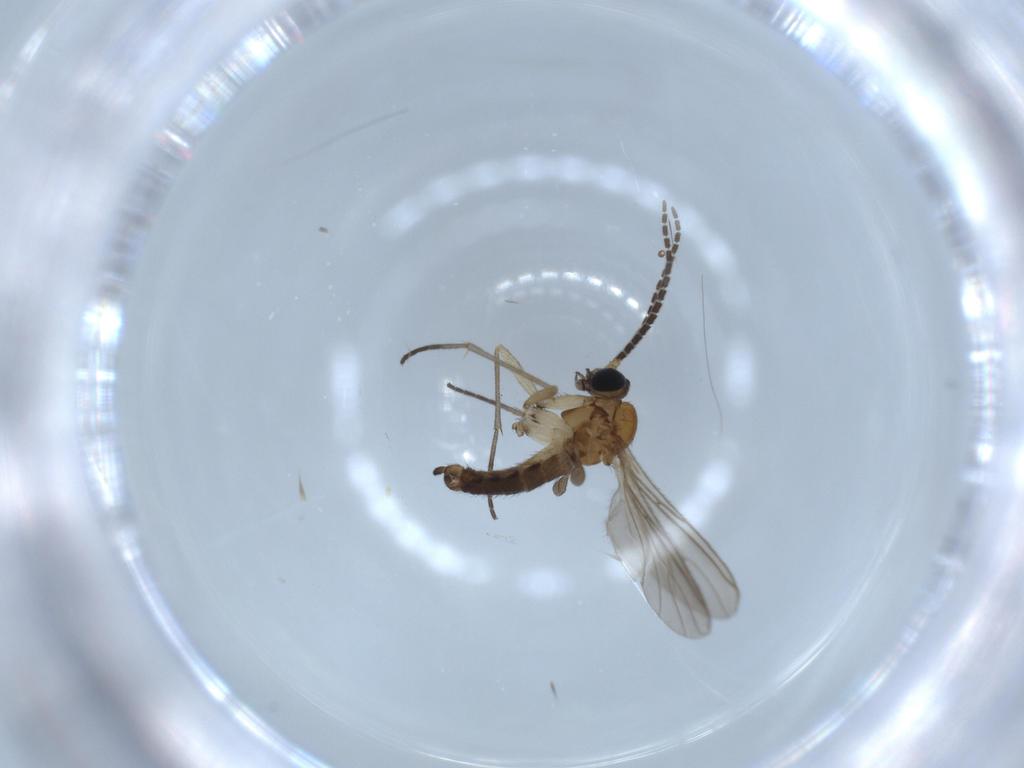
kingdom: Animalia
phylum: Arthropoda
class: Insecta
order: Diptera
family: Sciaridae
